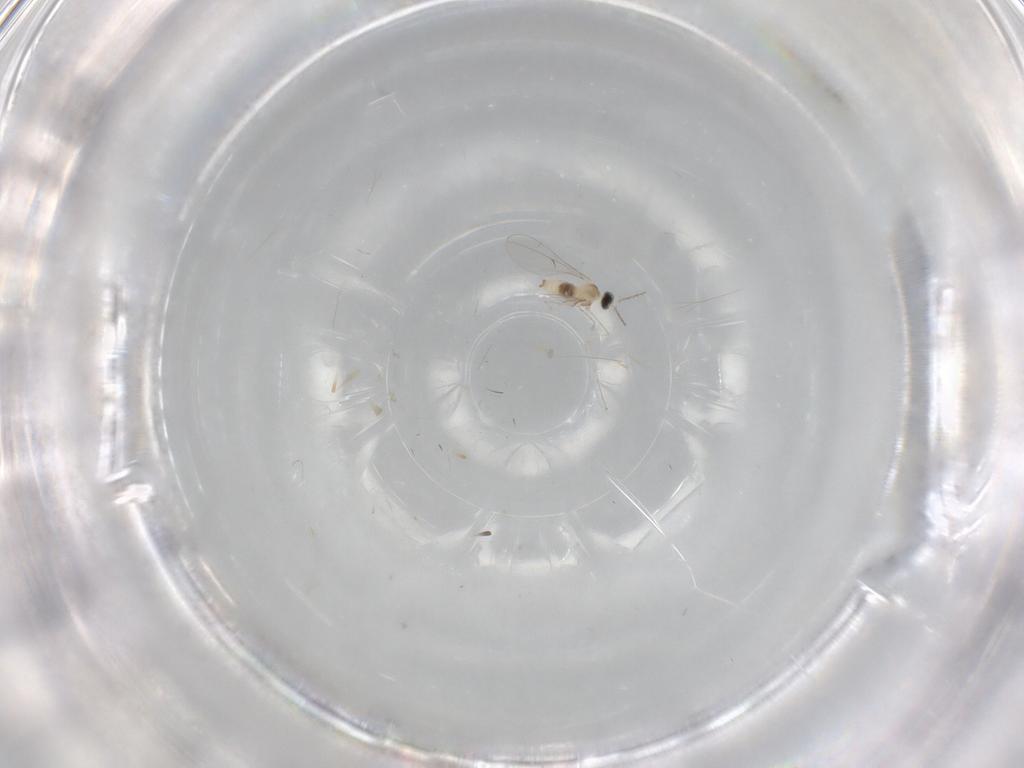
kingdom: Animalia
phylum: Arthropoda
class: Insecta
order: Diptera
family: Cecidomyiidae
